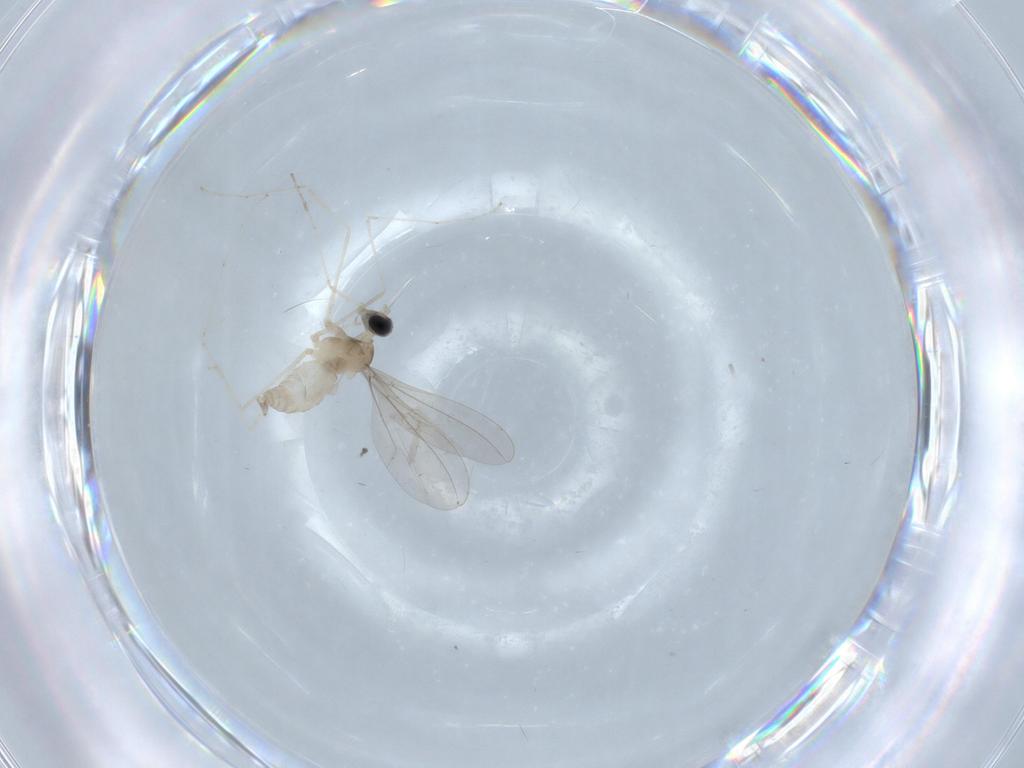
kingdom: Animalia
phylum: Arthropoda
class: Insecta
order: Diptera
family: Cecidomyiidae
